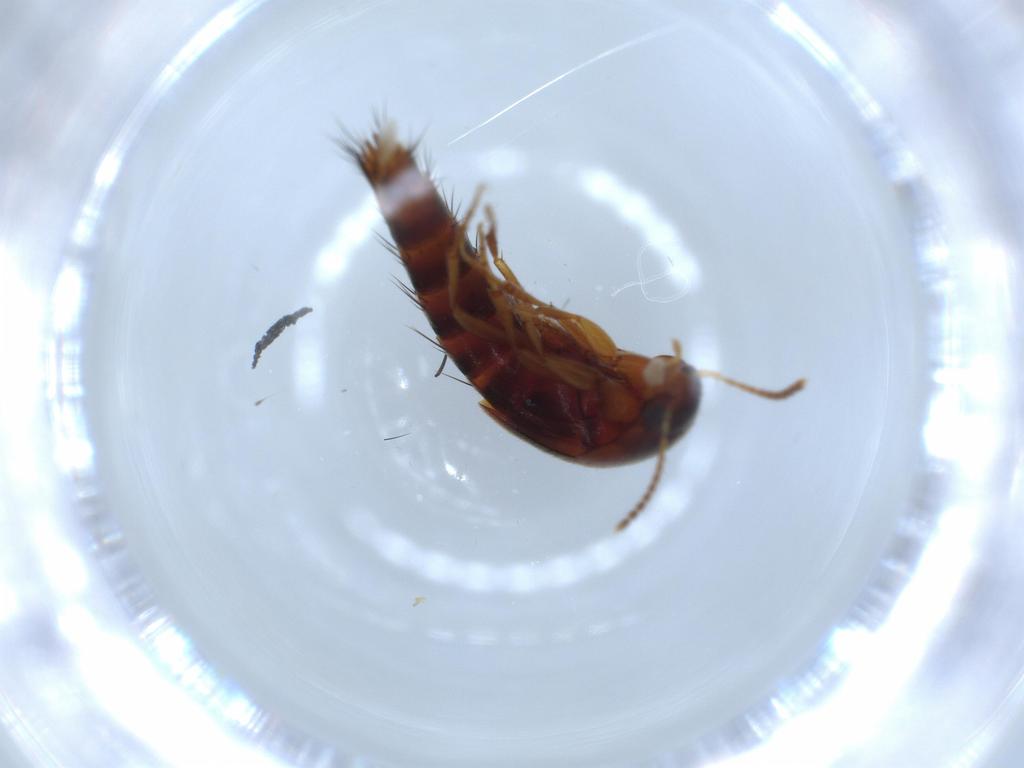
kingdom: Animalia
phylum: Arthropoda
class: Insecta
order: Coleoptera
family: Staphylinidae
